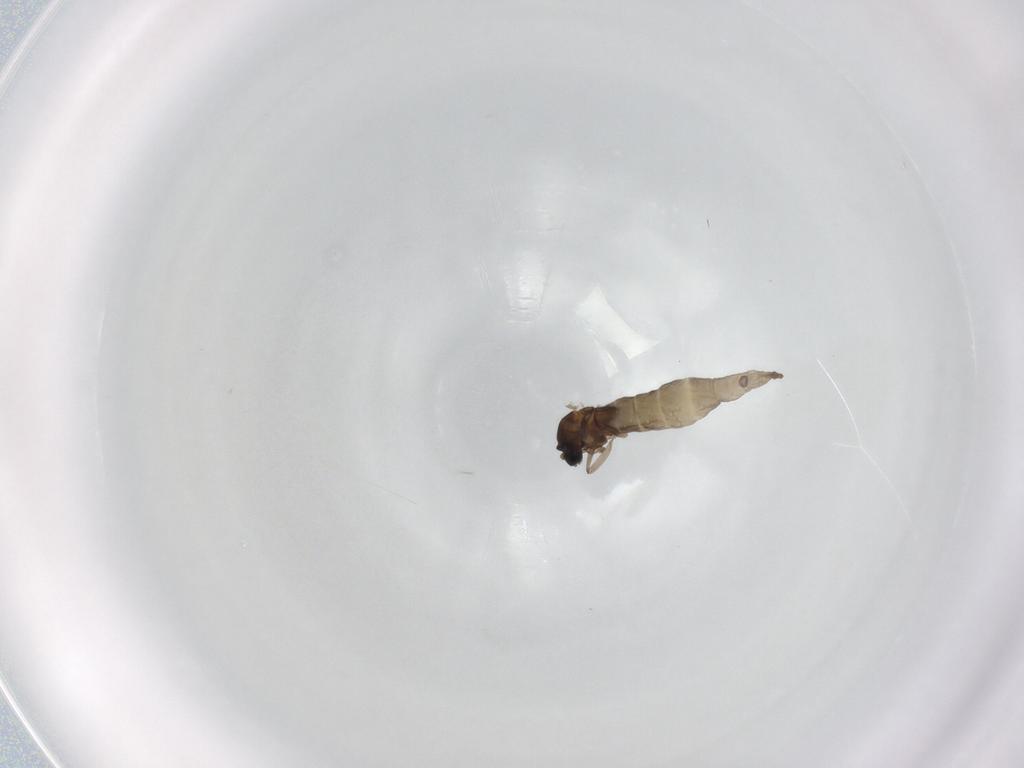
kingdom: Animalia
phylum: Arthropoda
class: Insecta
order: Diptera
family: Cecidomyiidae
